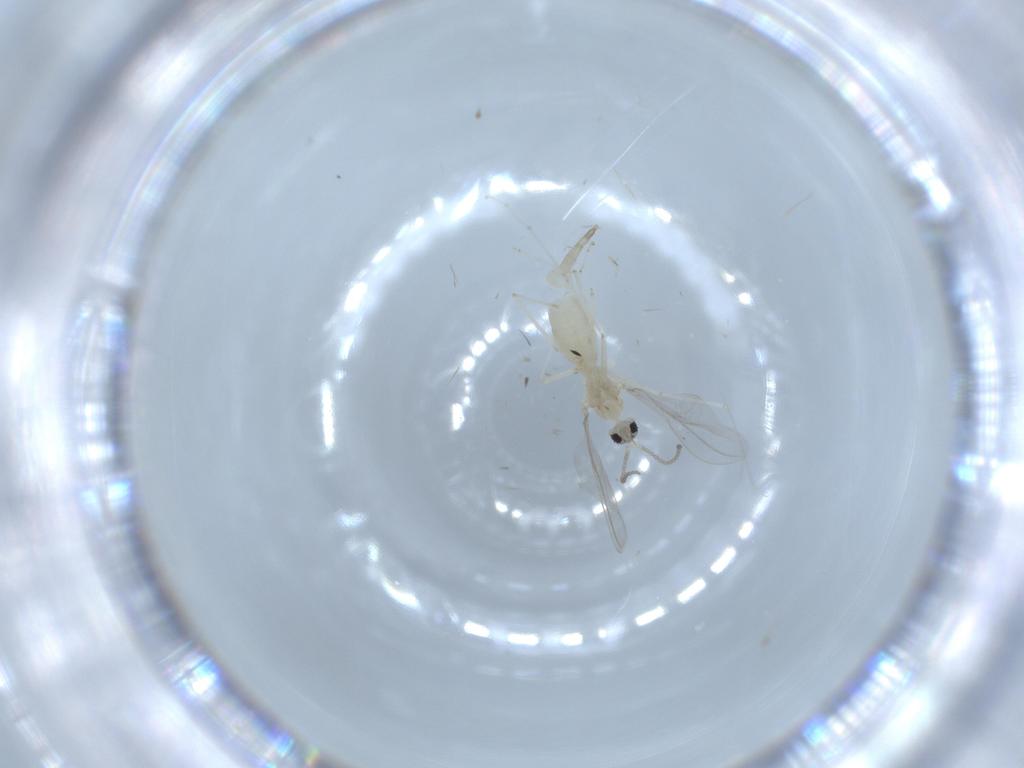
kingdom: Animalia
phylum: Arthropoda
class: Insecta
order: Diptera
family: Cecidomyiidae
